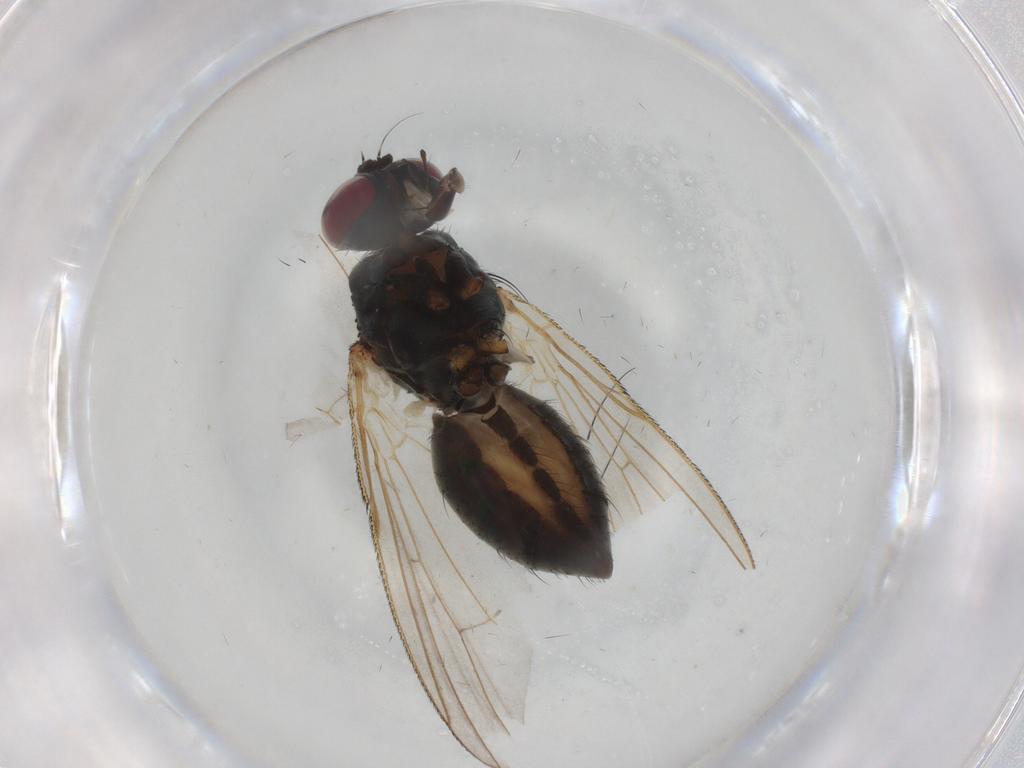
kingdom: Animalia
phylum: Arthropoda
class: Insecta
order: Diptera
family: Chironomidae
